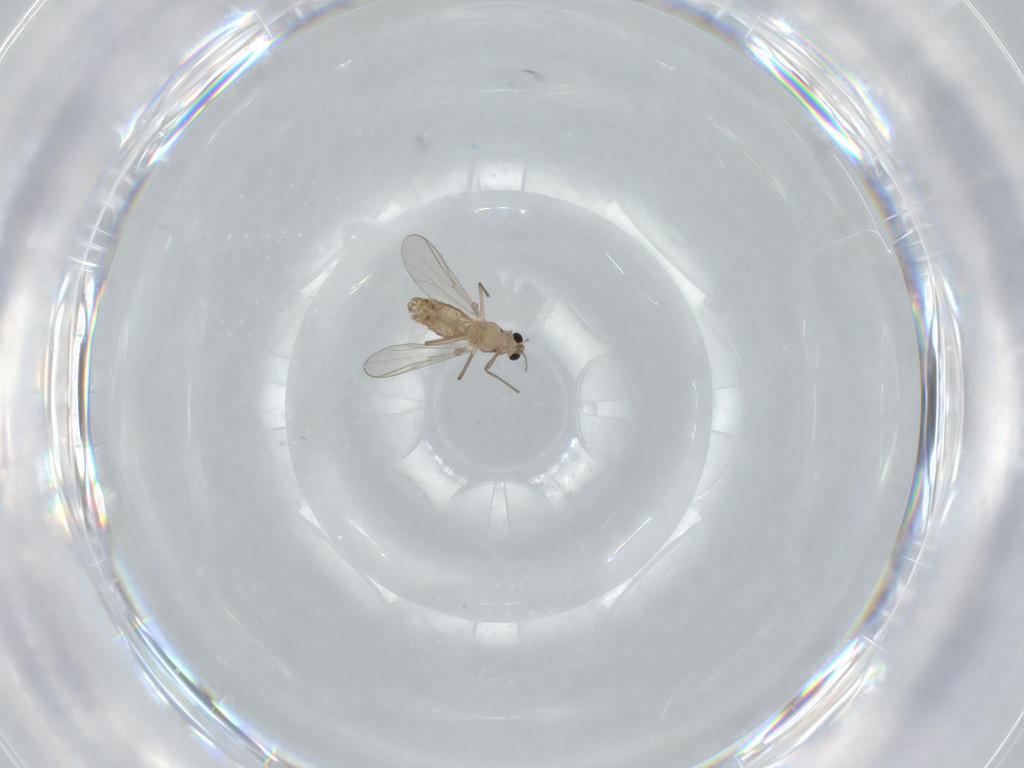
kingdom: Animalia
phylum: Arthropoda
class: Insecta
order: Diptera
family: Chironomidae
